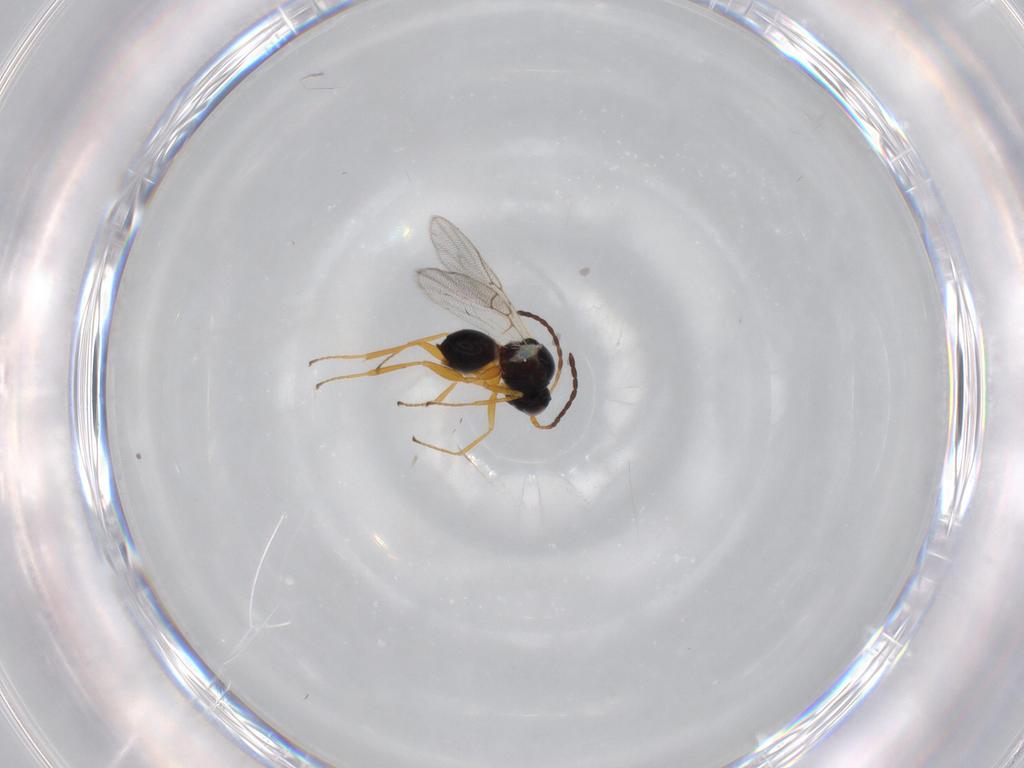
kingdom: Animalia
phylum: Arthropoda
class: Insecta
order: Hymenoptera
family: Figitidae
